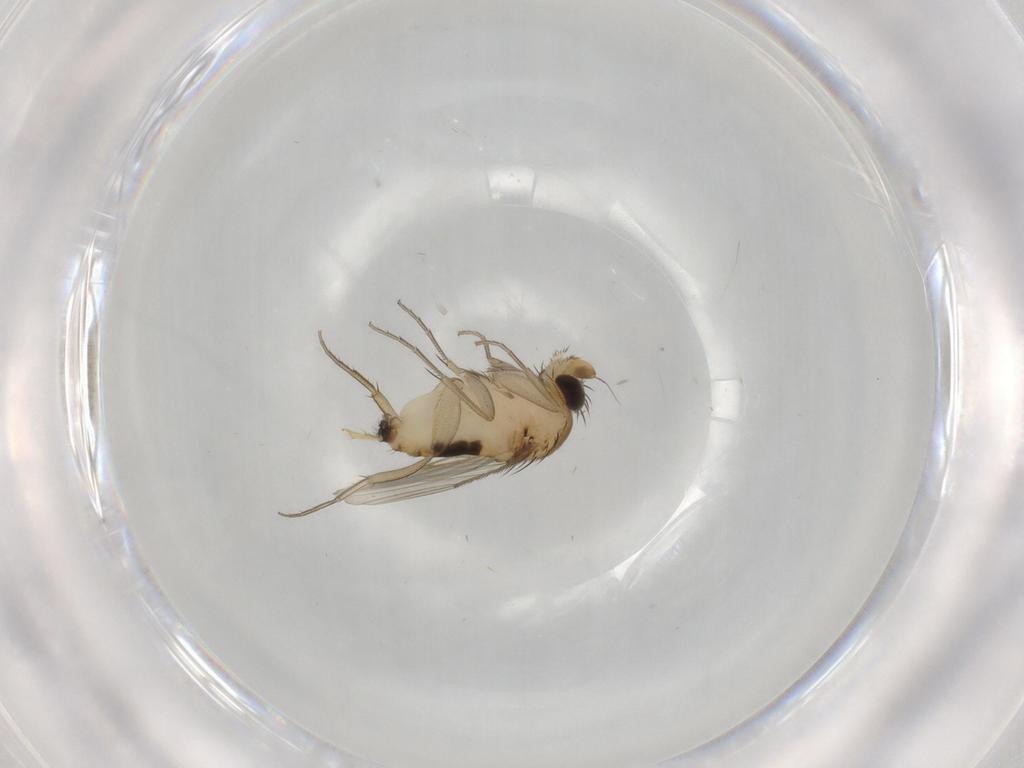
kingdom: Animalia
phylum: Arthropoda
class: Insecta
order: Diptera
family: Phoridae
